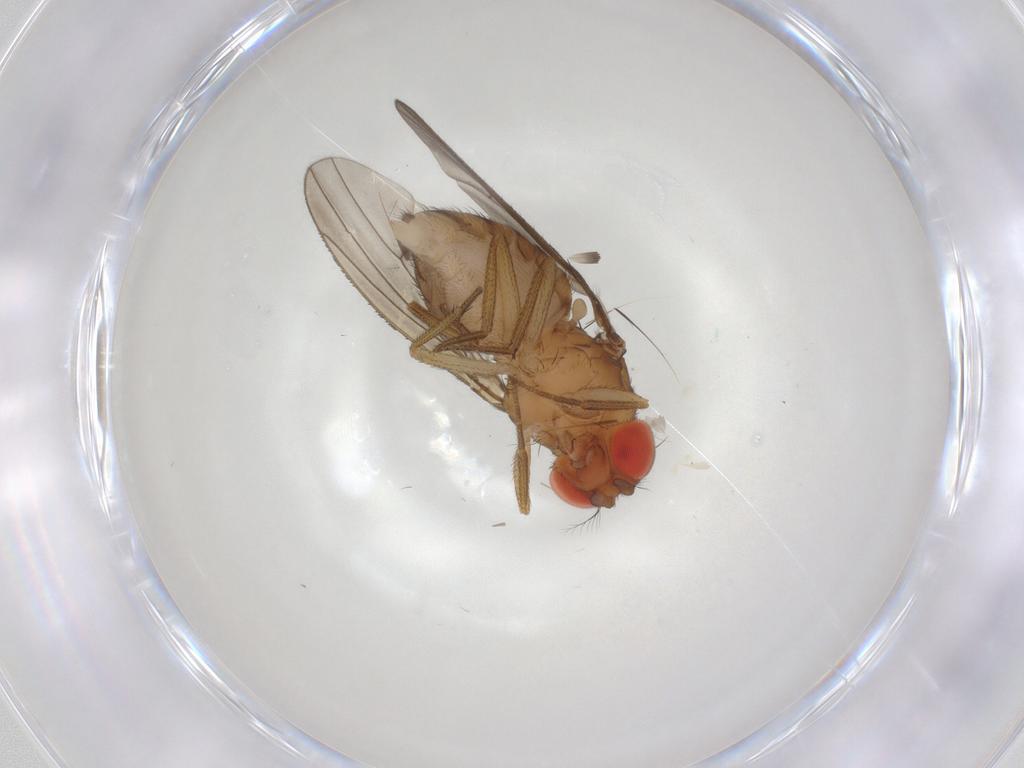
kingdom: Animalia
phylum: Arthropoda
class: Insecta
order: Diptera
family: Drosophilidae
